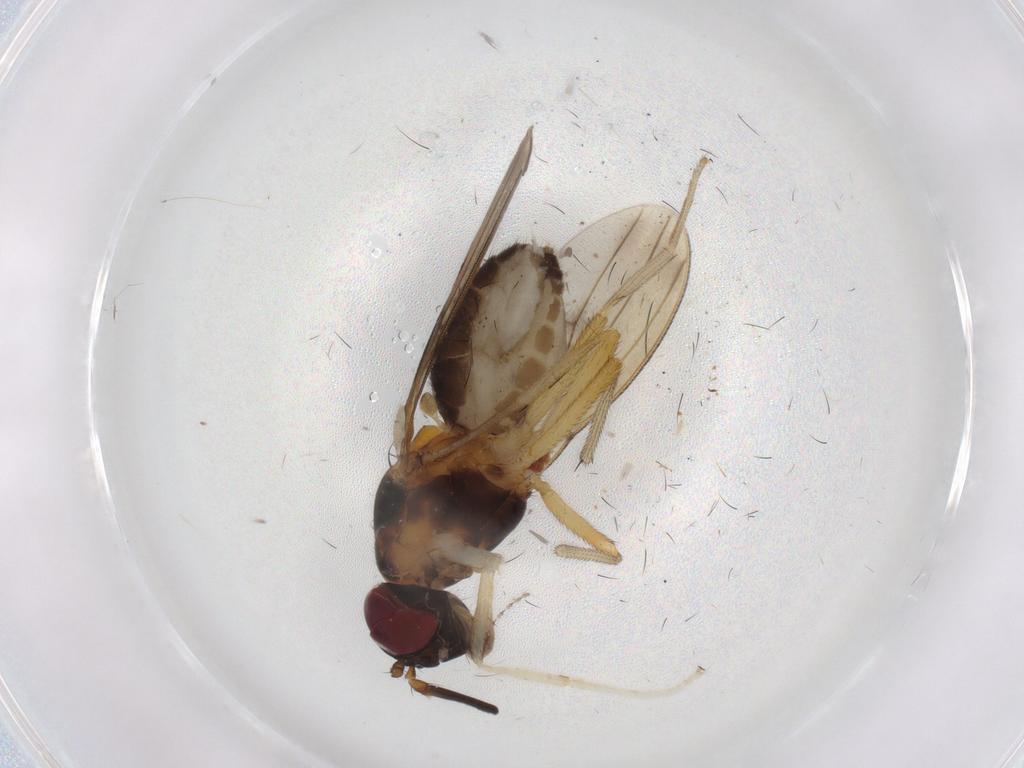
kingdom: Animalia
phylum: Arthropoda
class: Insecta
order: Diptera
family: Lauxaniidae
